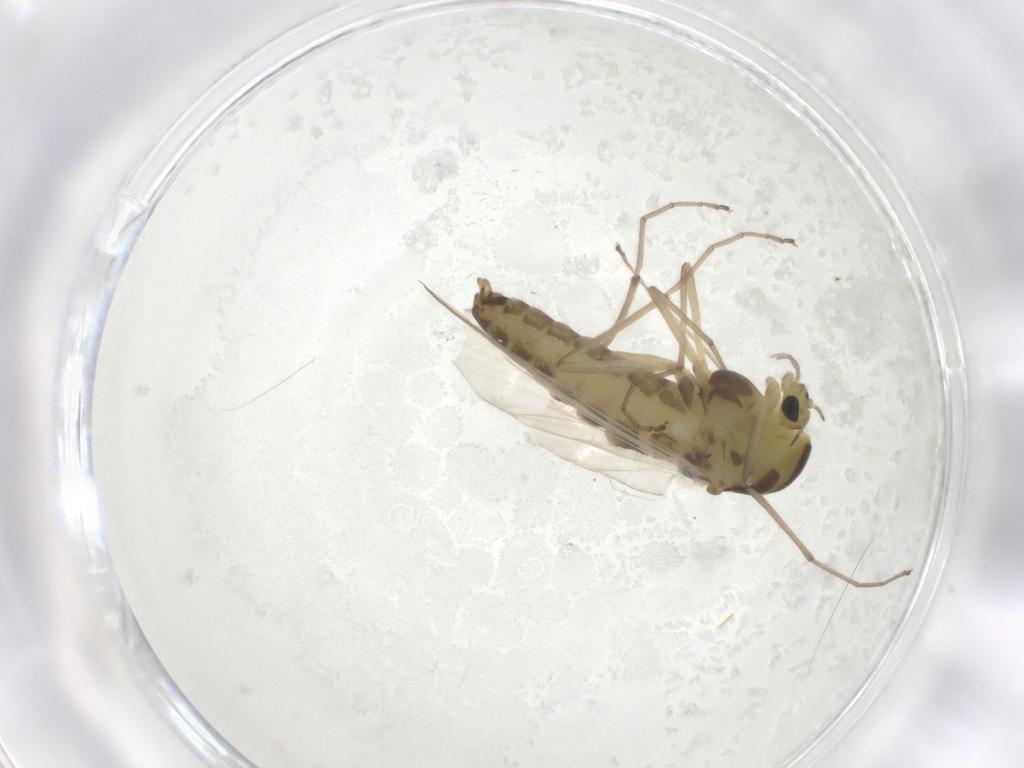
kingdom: Animalia
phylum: Arthropoda
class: Insecta
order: Diptera
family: Chironomidae
